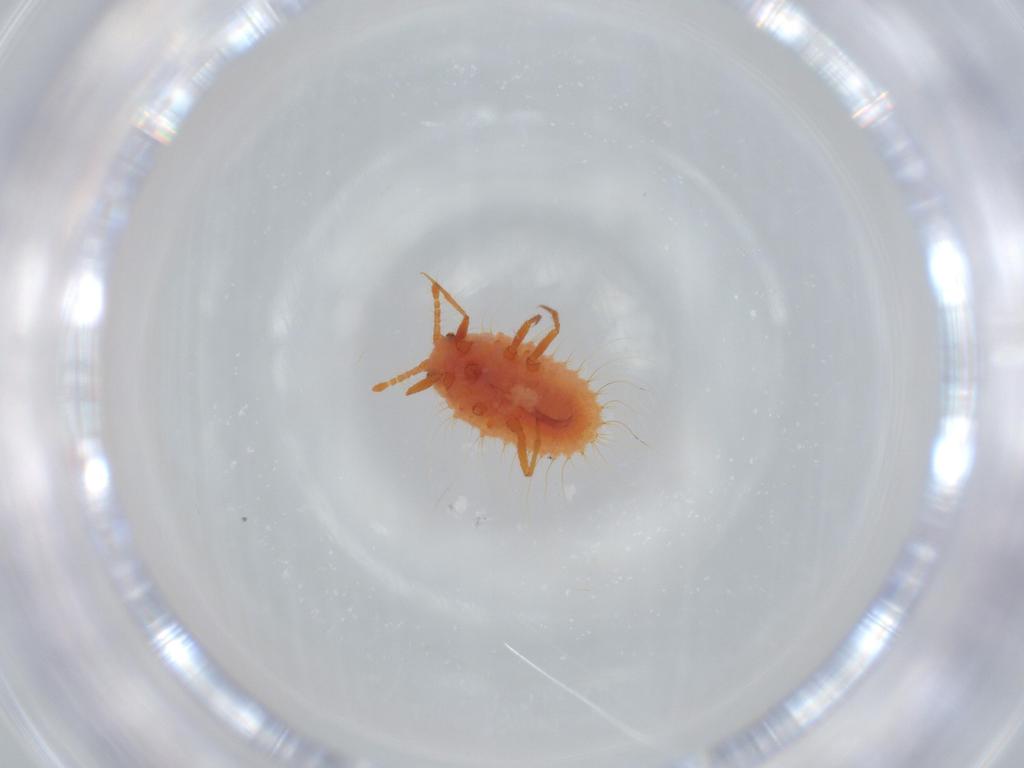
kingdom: Animalia
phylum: Arthropoda
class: Insecta
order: Hemiptera
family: Coccoidea_incertae_sedis
